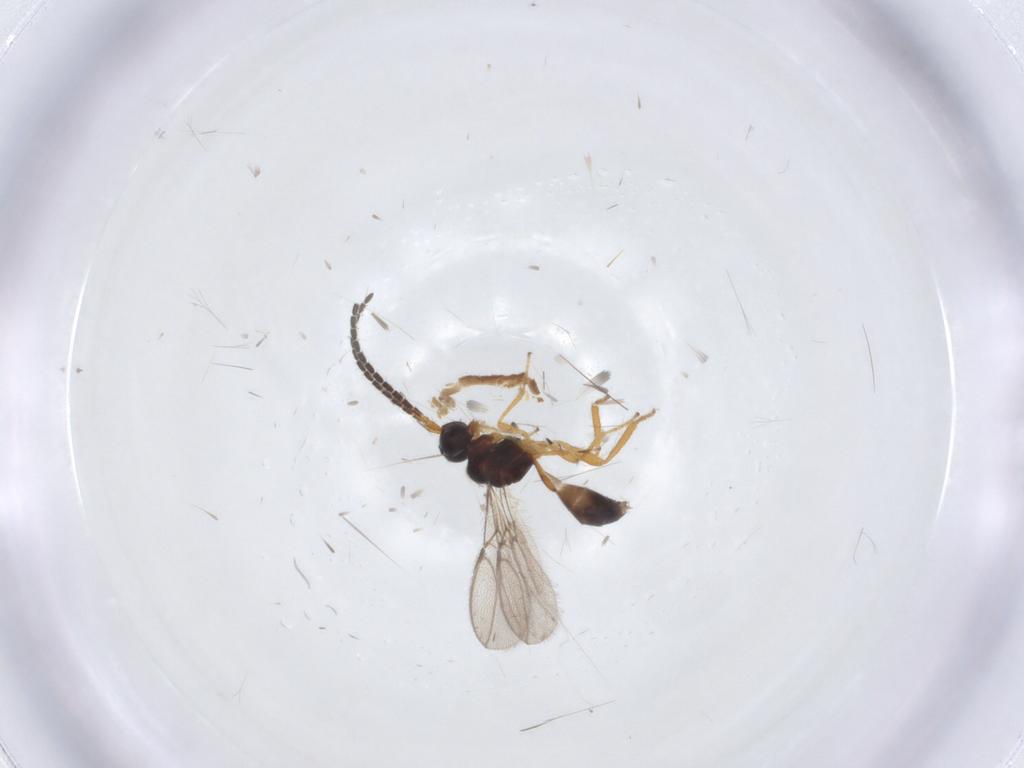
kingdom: Animalia
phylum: Arthropoda
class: Insecta
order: Hymenoptera
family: Braconidae
